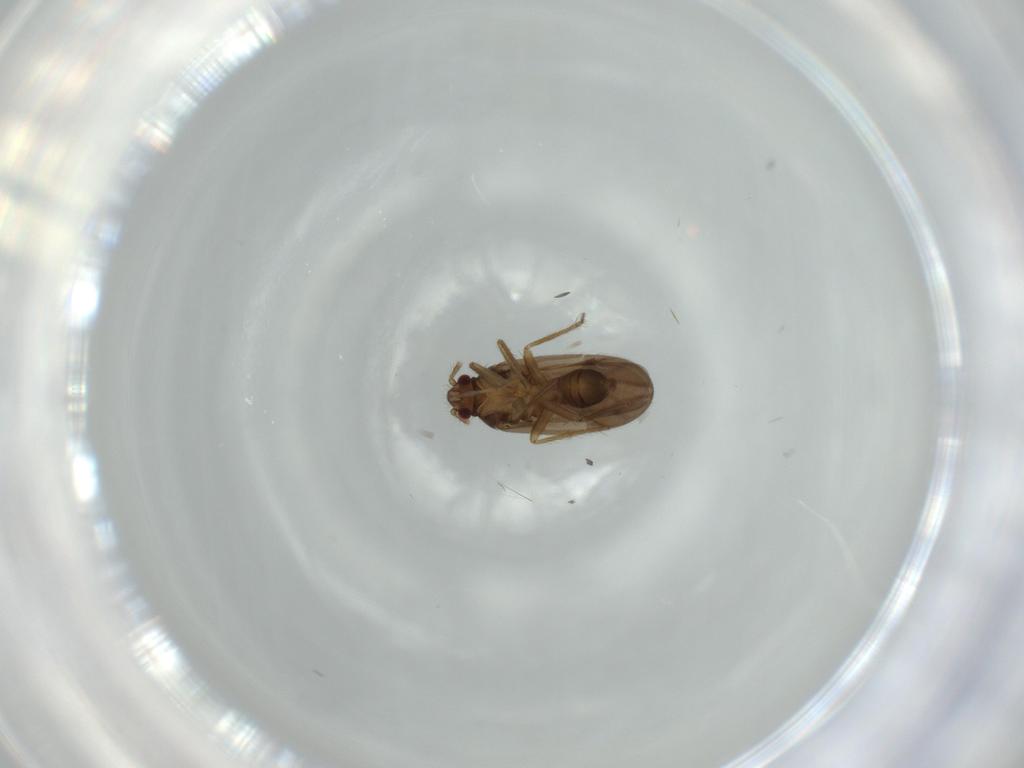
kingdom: Animalia
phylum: Arthropoda
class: Insecta
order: Hemiptera
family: Ceratocombidae
